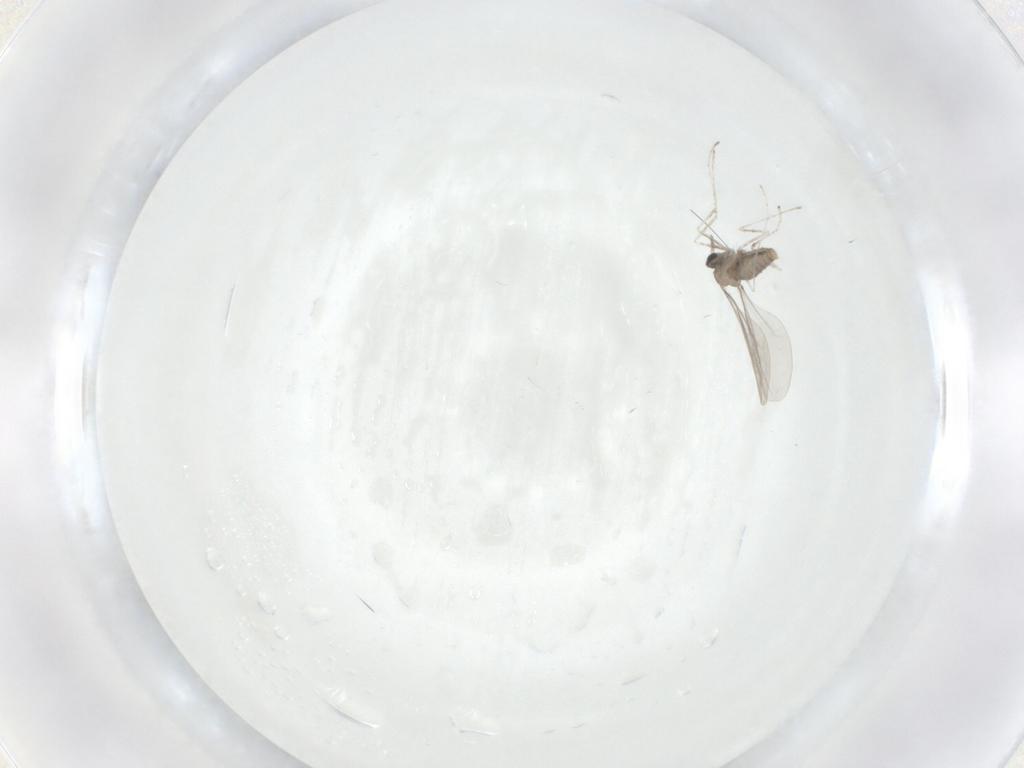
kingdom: Animalia
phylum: Arthropoda
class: Insecta
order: Diptera
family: Cecidomyiidae
